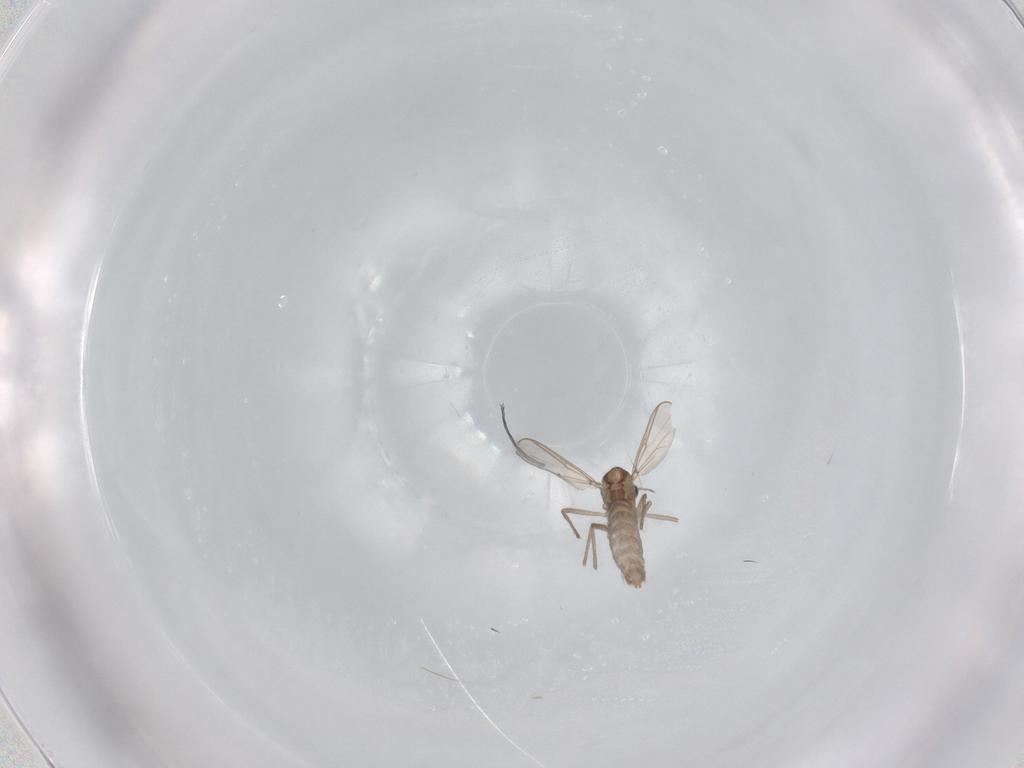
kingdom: Animalia
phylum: Arthropoda
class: Insecta
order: Diptera
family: Chironomidae
